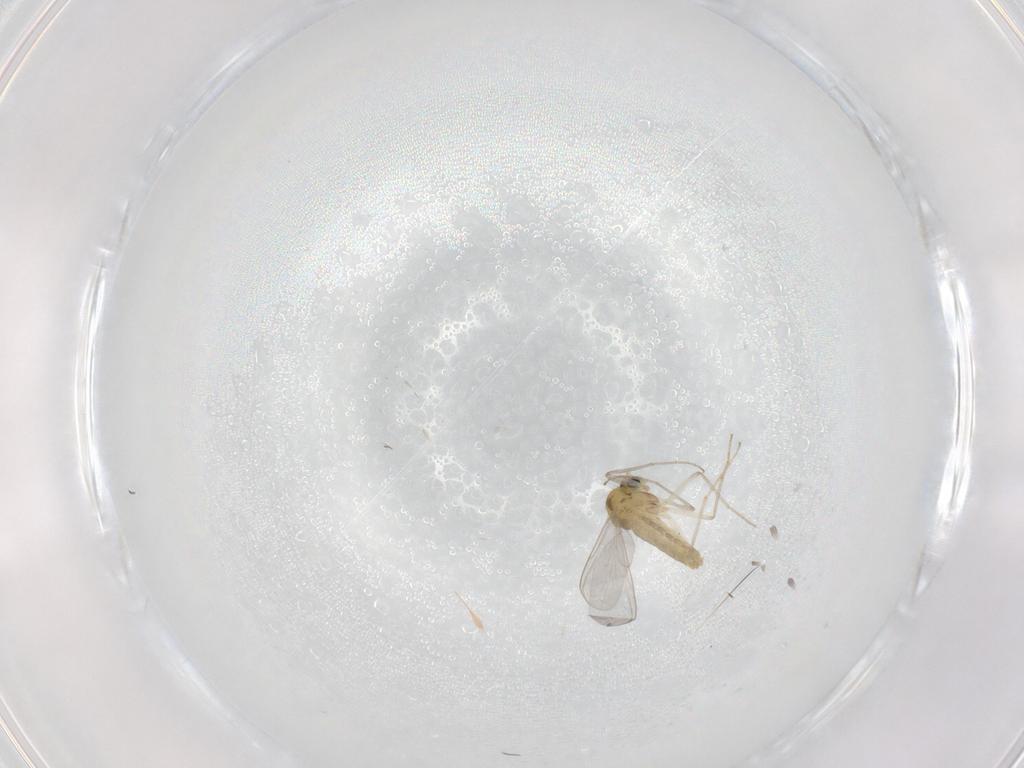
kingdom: Animalia
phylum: Arthropoda
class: Insecta
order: Diptera
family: Chironomidae
